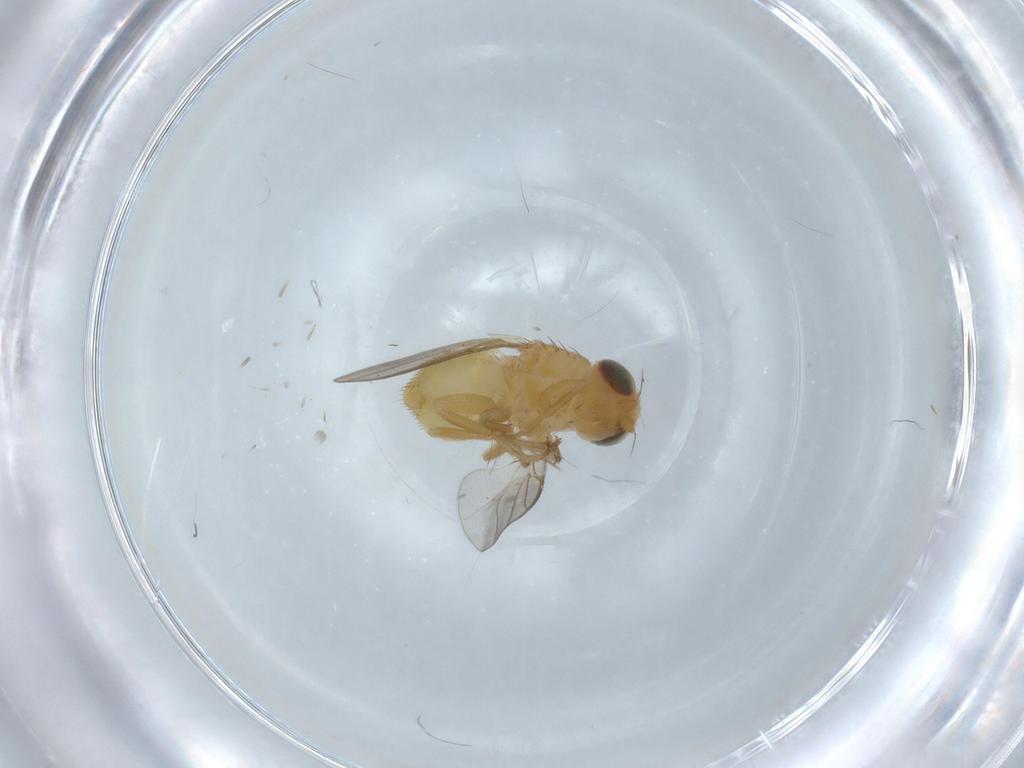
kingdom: Animalia
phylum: Arthropoda
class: Insecta
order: Diptera
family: Chloropidae
